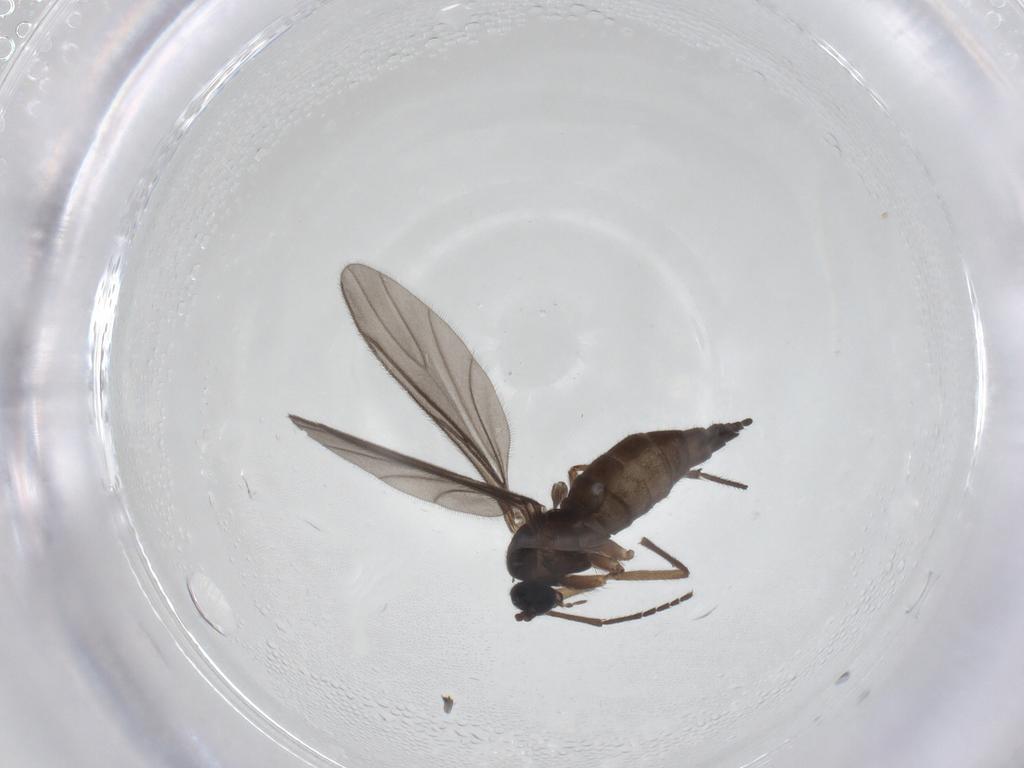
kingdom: Animalia
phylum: Arthropoda
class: Insecta
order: Diptera
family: Sciaridae
